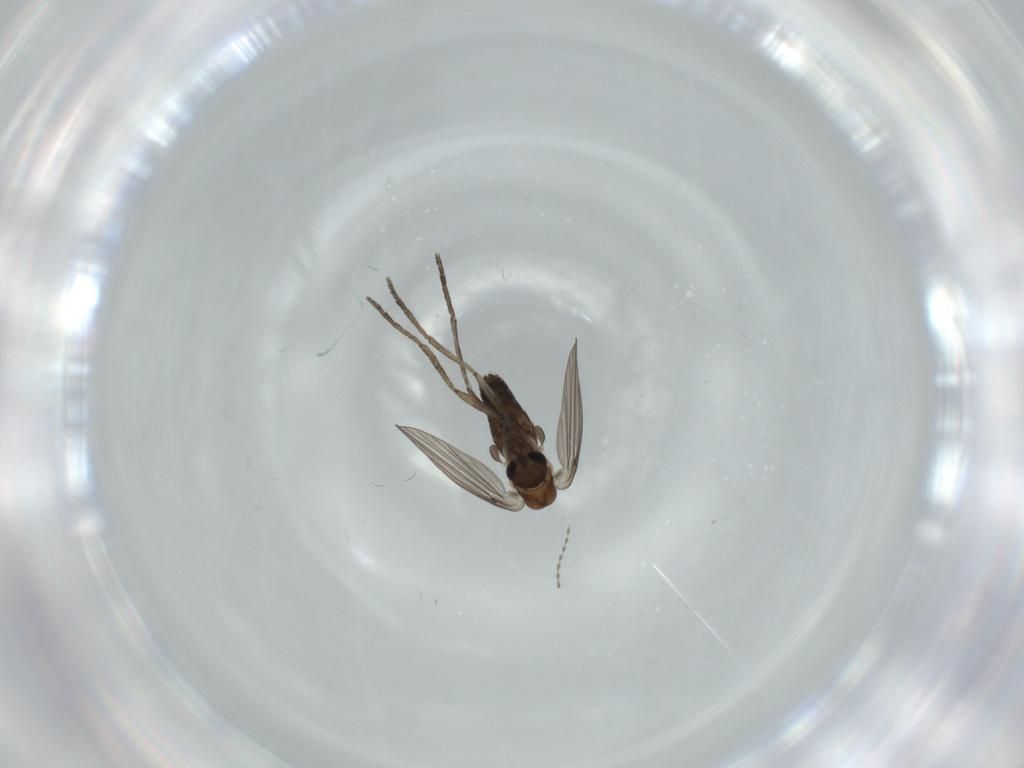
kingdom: Animalia
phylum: Arthropoda
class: Insecta
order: Diptera
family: Psychodidae
